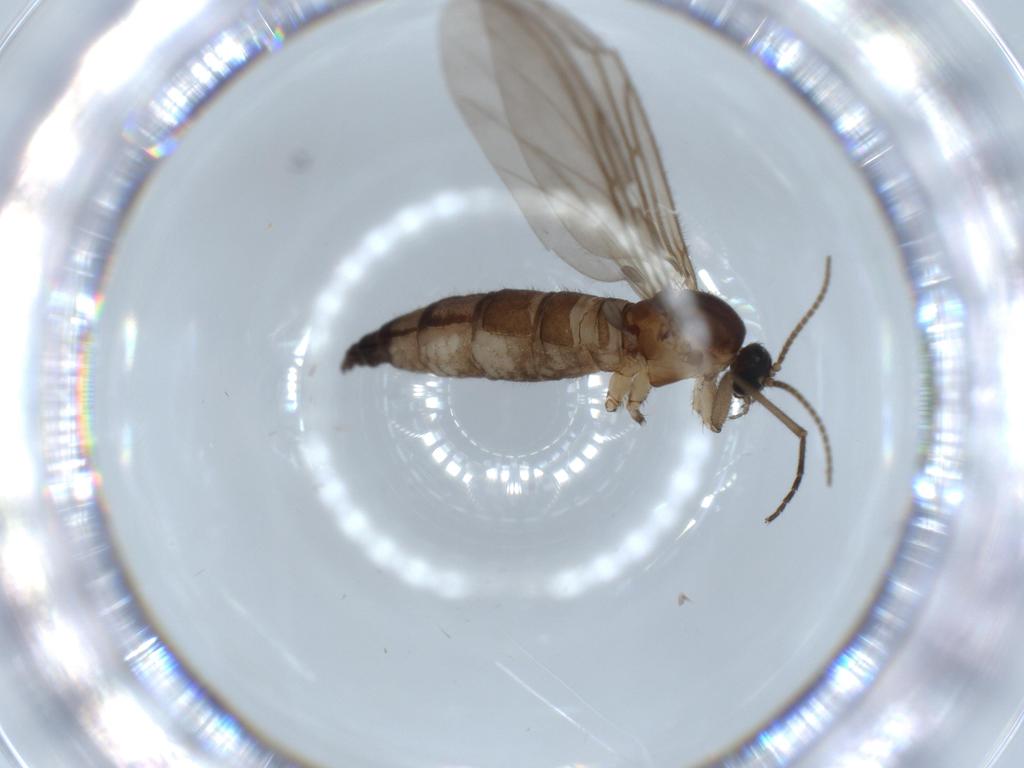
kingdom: Animalia
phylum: Arthropoda
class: Insecta
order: Diptera
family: Sciaridae
